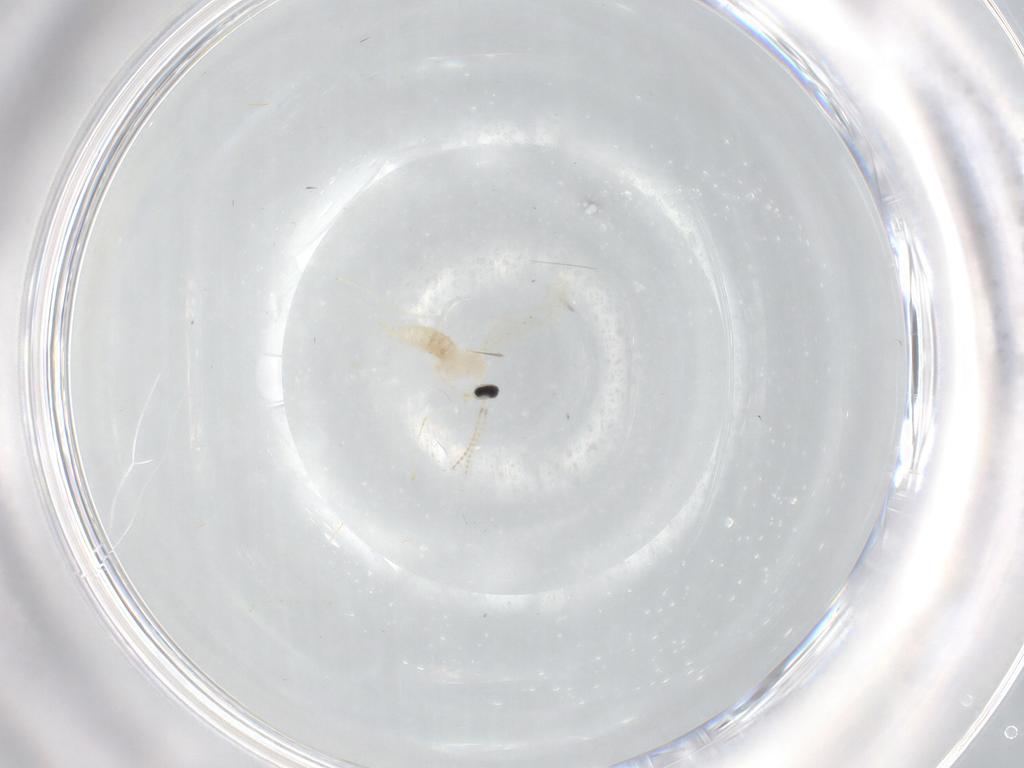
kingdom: Animalia
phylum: Arthropoda
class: Insecta
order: Diptera
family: Cecidomyiidae
